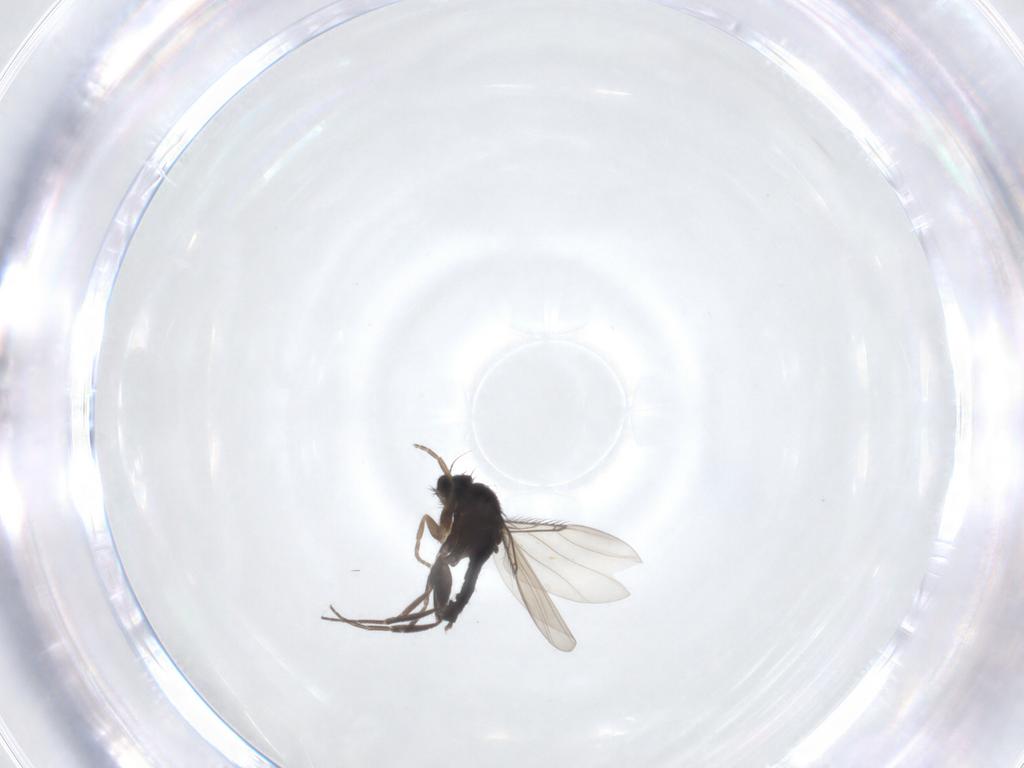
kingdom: Animalia
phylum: Arthropoda
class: Insecta
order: Diptera
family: Phoridae
